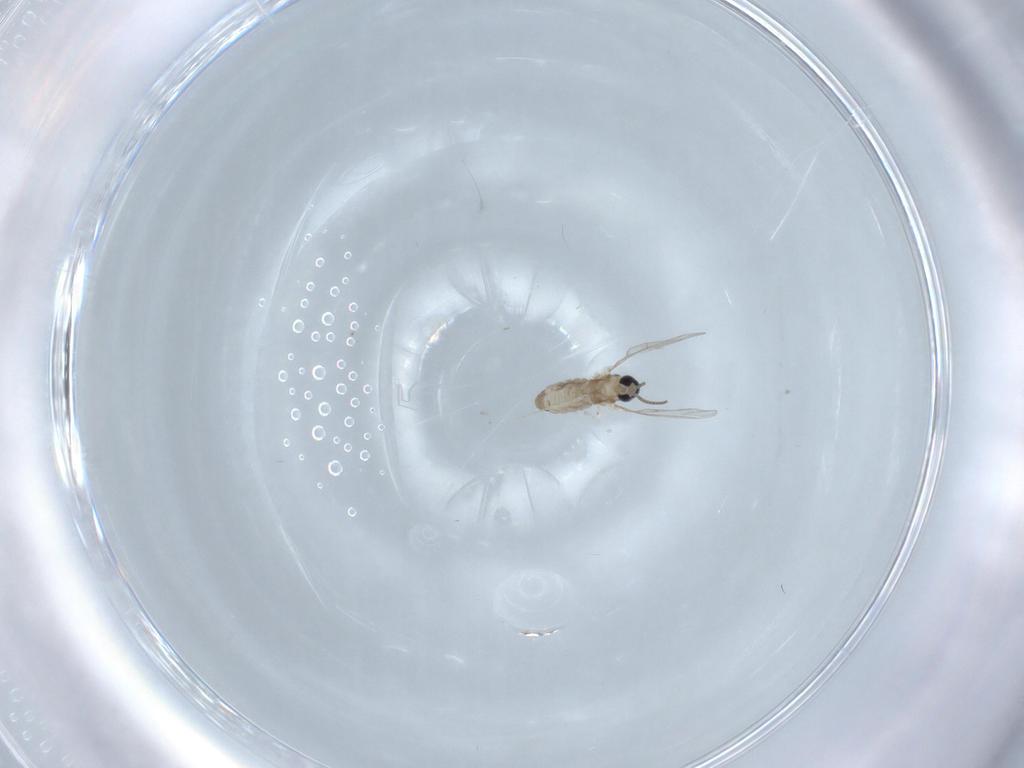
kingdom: Animalia
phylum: Arthropoda
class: Insecta
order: Diptera
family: Cecidomyiidae
